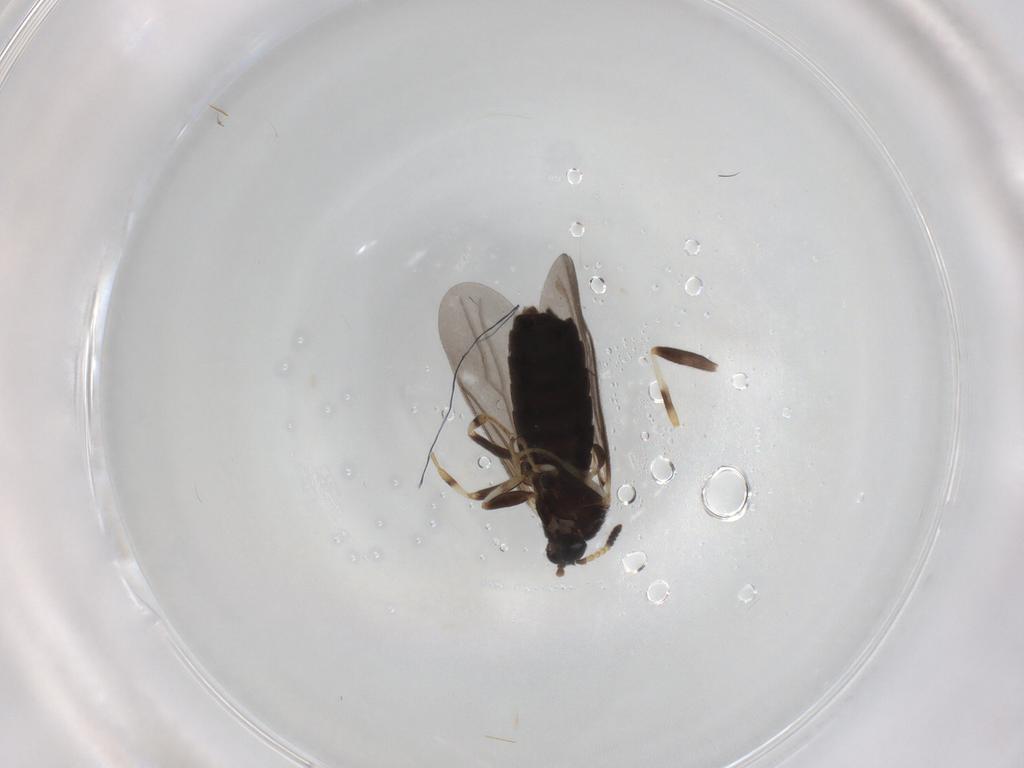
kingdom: Animalia
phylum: Arthropoda
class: Insecta
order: Diptera
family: Scatopsidae
